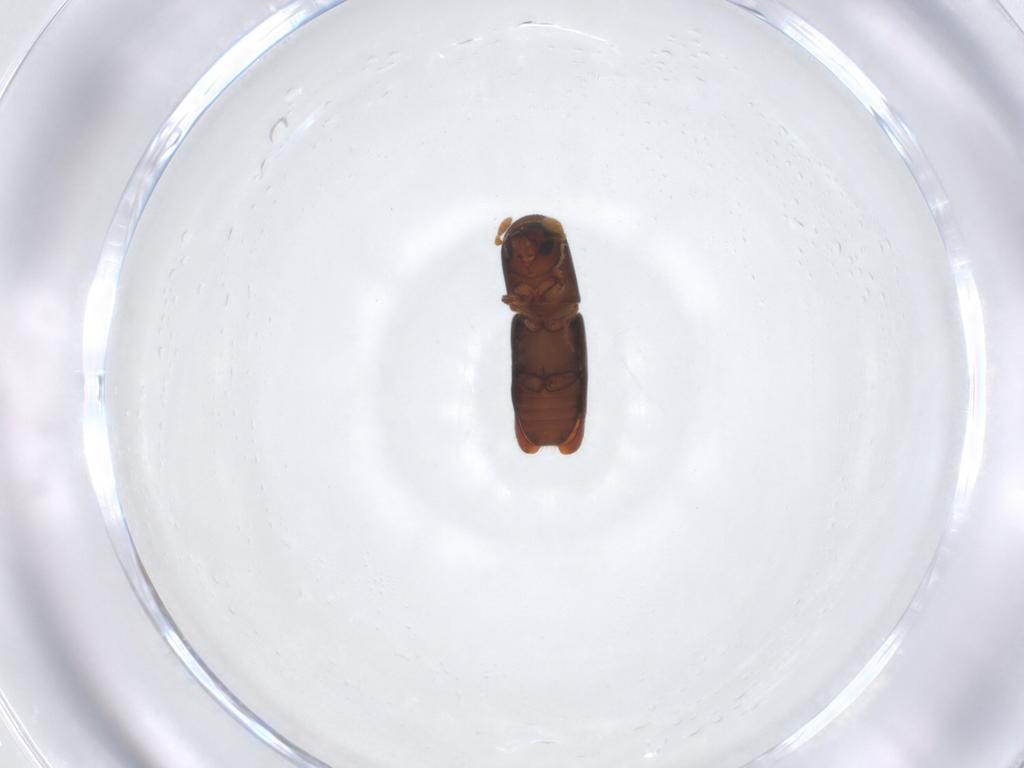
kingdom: Animalia
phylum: Arthropoda
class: Insecta
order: Coleoptera
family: Curculionidae
